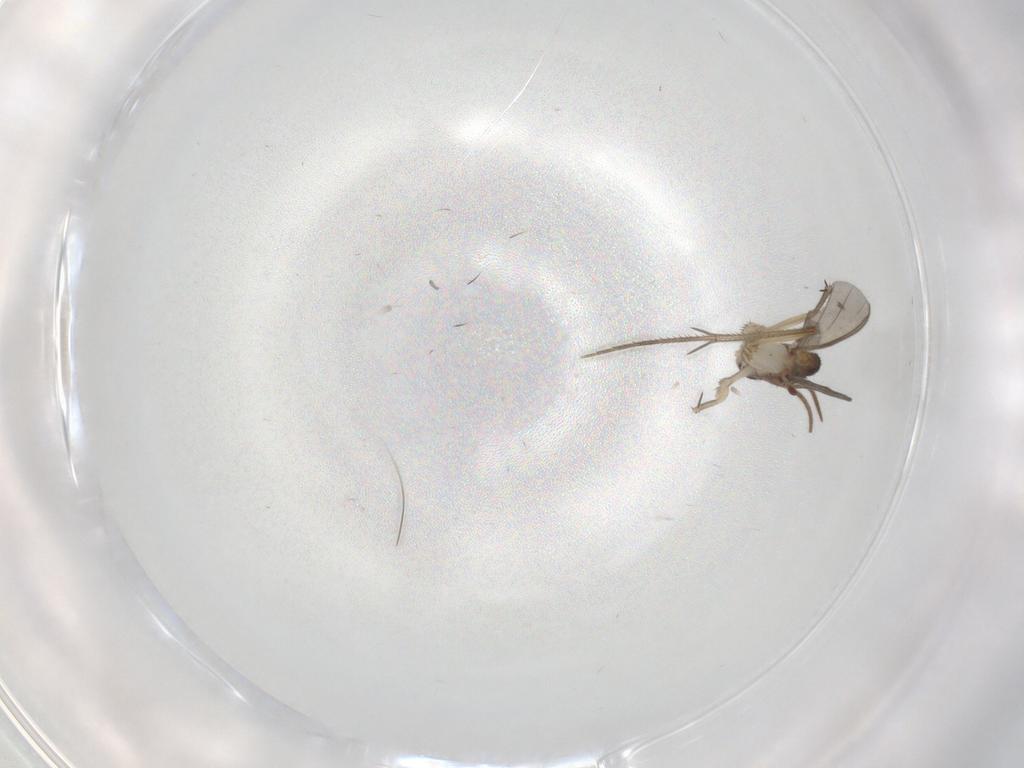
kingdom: Animalia
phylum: Arthropoda
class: Insecta
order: Diptera
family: Mycetophilidae
